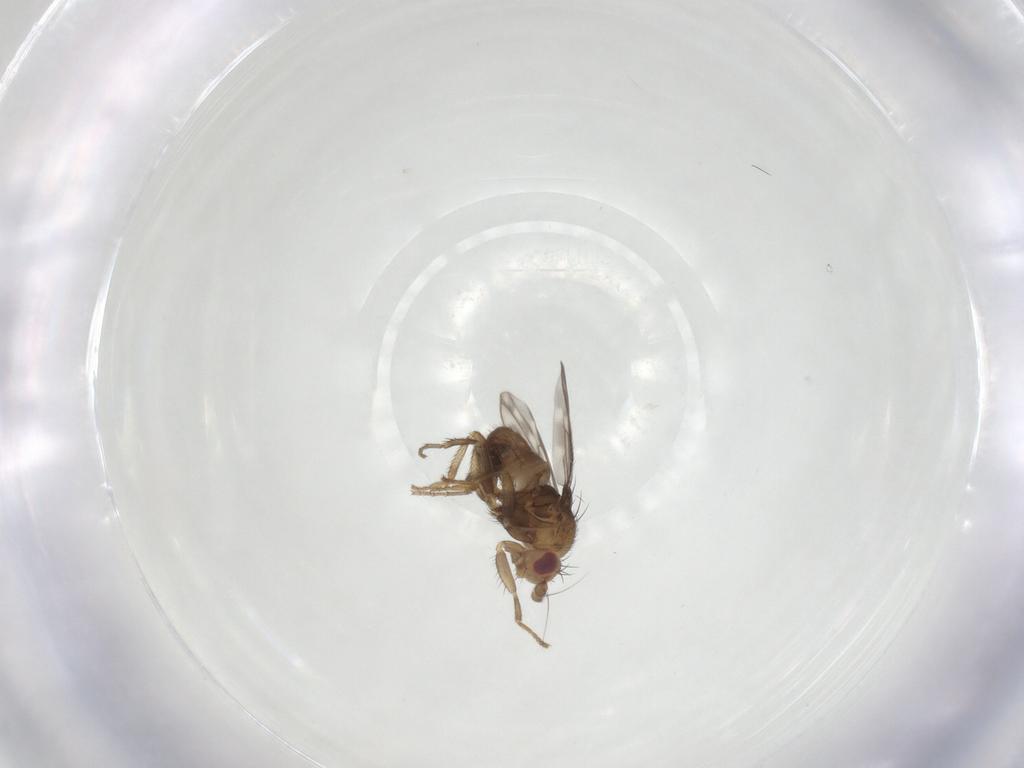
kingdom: Animalia
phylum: Arthropoda
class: Insecta
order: Diptera
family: Sphaeroceridae
